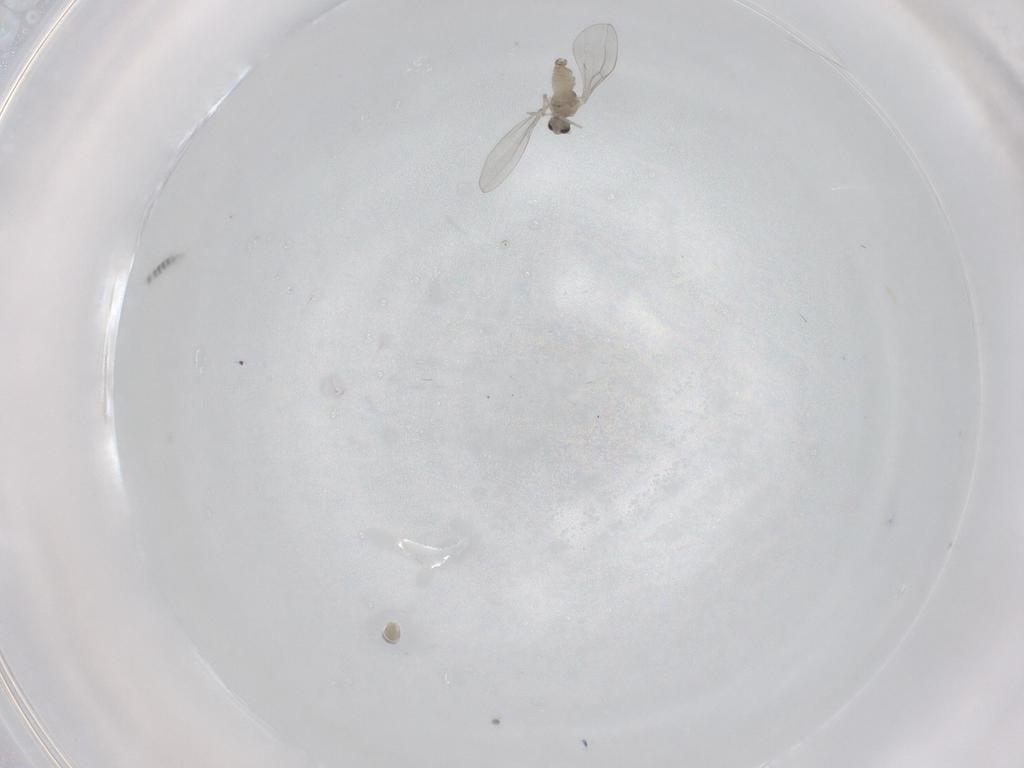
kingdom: Animalia
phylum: Arthropoda
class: Insecta
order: Diptera
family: Cecidomyiidae
